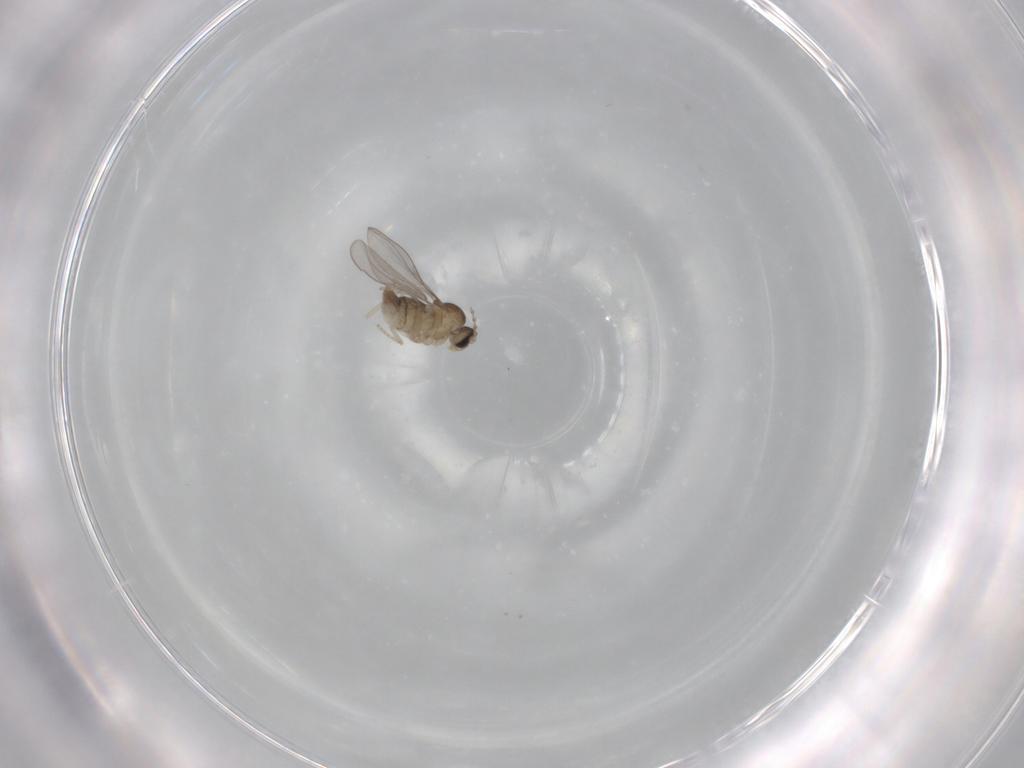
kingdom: Animalia
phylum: Arthropoda
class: Insecta
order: Diptera
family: Cecidomyiidae
